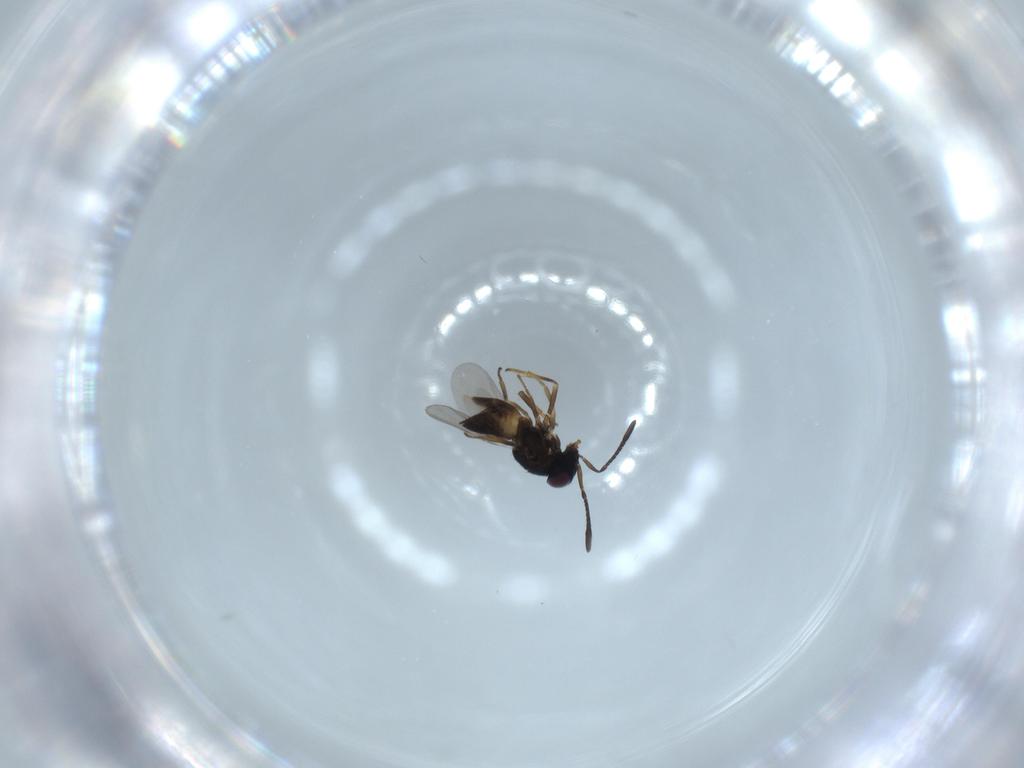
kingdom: Animalia
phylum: Arthropoda
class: Insecta
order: Hymenoptera
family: Encyrtidae
